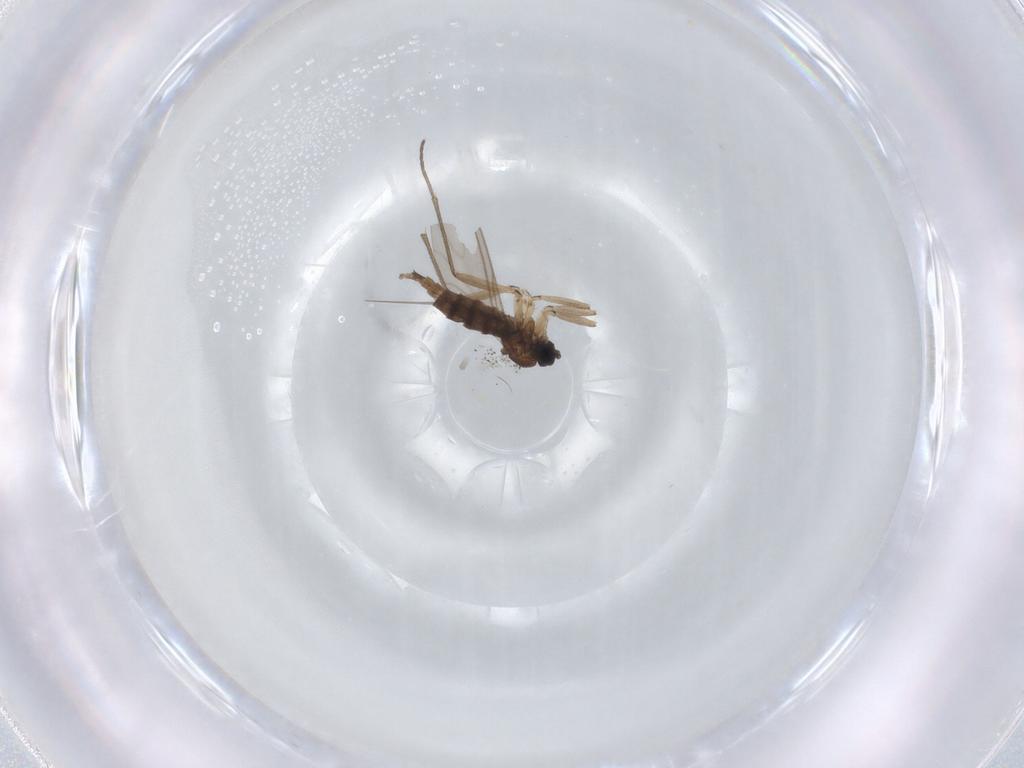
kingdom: Animalia
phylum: Arthropoda
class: Insecta
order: Diptera
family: Sciaridae
